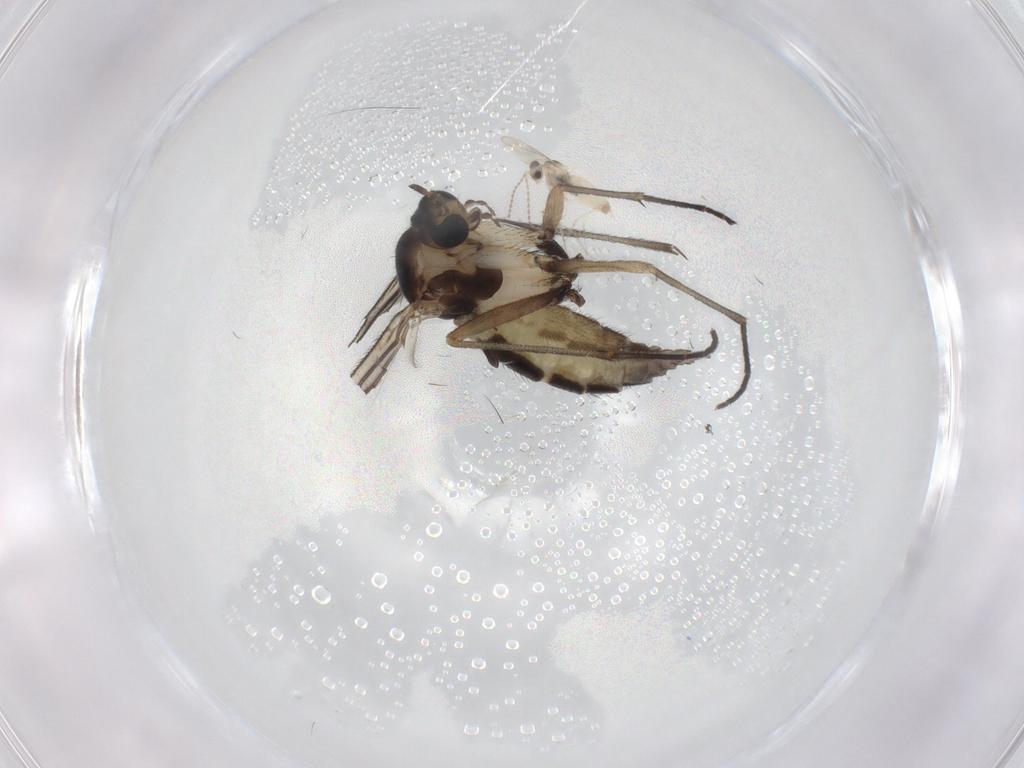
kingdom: Animalia
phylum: Arthropoda
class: Insecta
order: Diptera
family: Sciaridae
